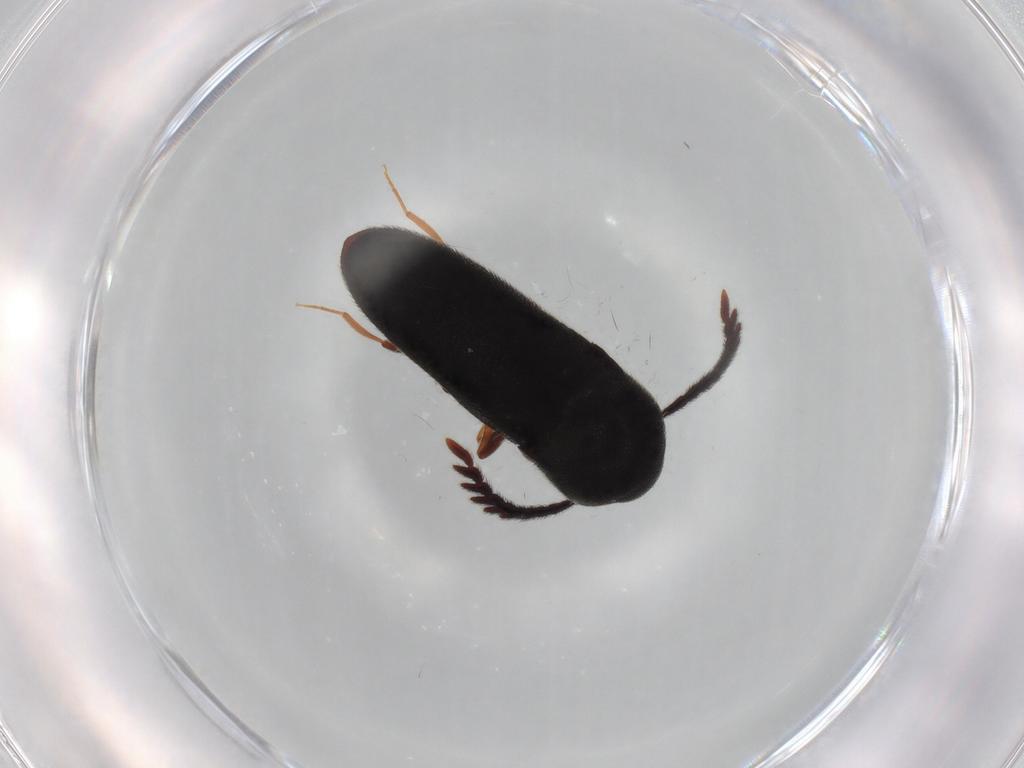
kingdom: Animalia
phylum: Arthropoda
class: Insecta
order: Coleoptera
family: Eucnemidae
